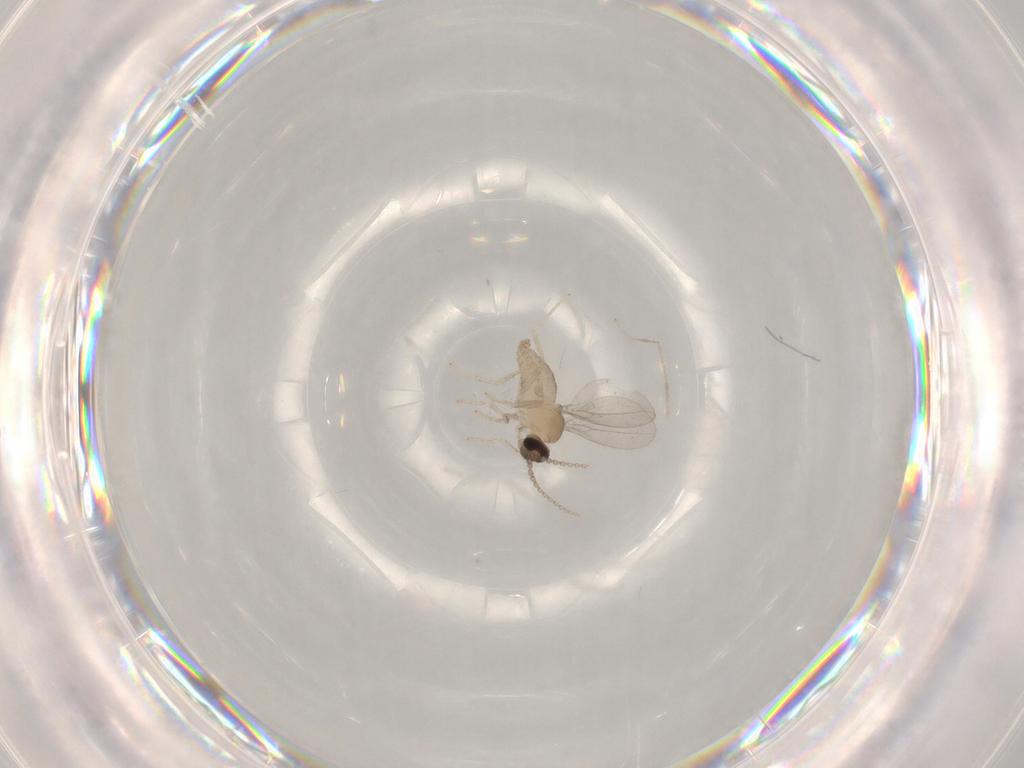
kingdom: Animalia
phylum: Arthropoda
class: Insecta
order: Diptera
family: Cecidomyiidae
